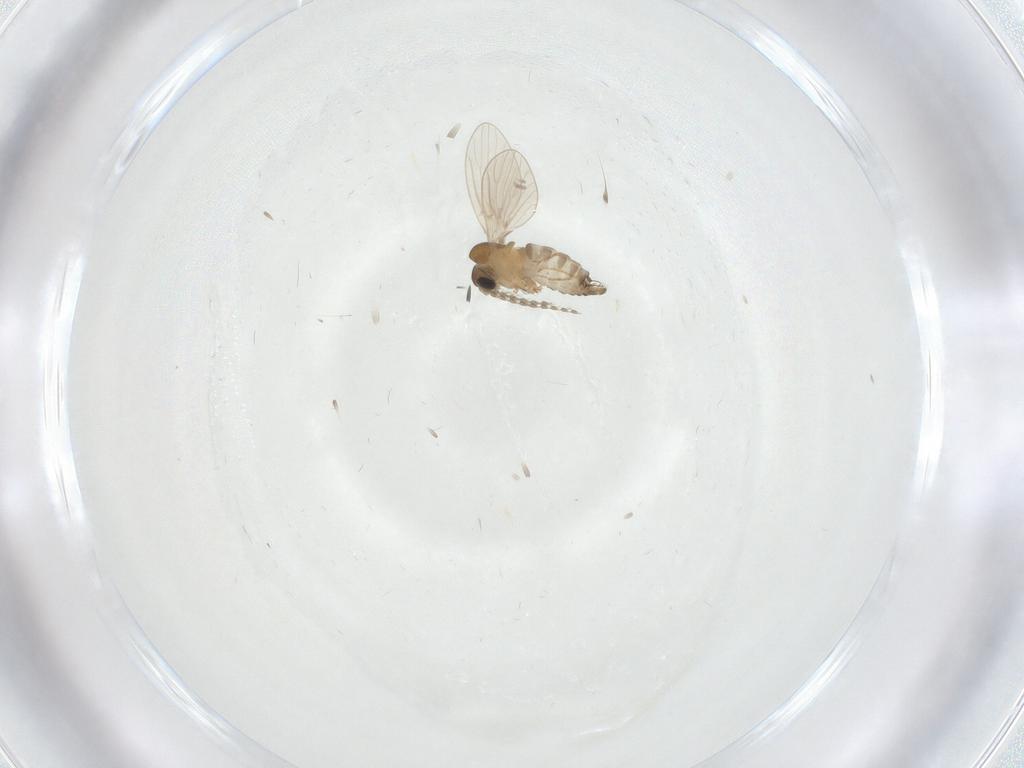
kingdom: Animalia
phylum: Arthropoda
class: Insecta
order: Diptera
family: Psychodidae
